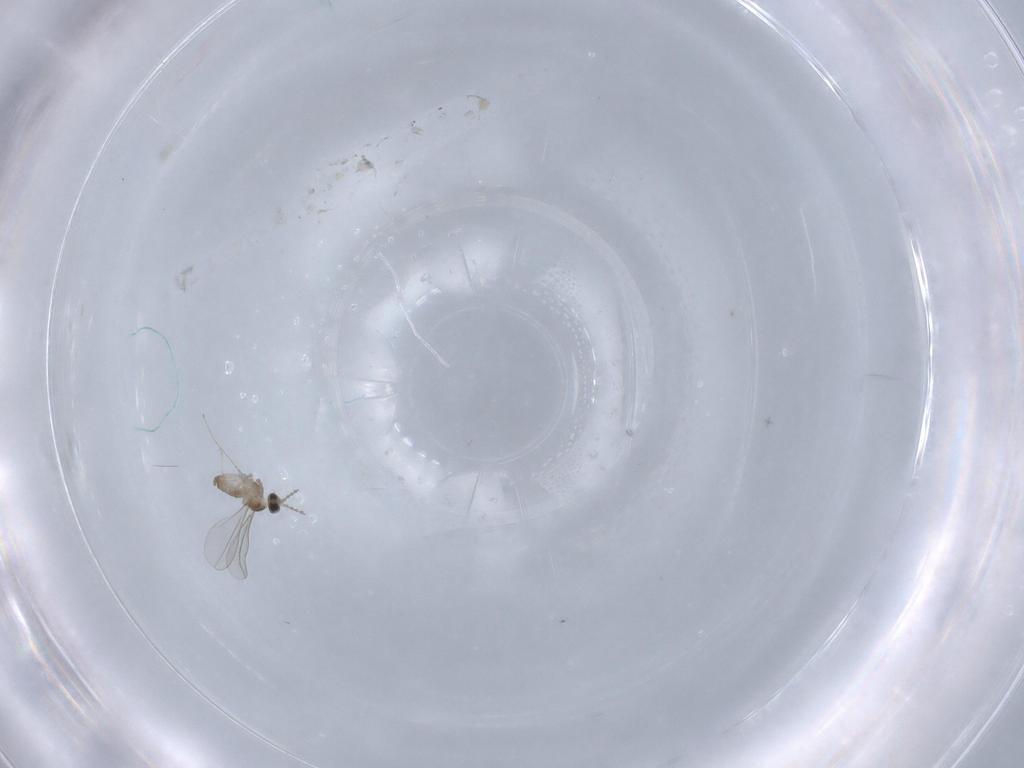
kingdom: Animalia
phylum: Arthropoda
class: Insecta
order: Diptera
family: Cecidomyiidae
